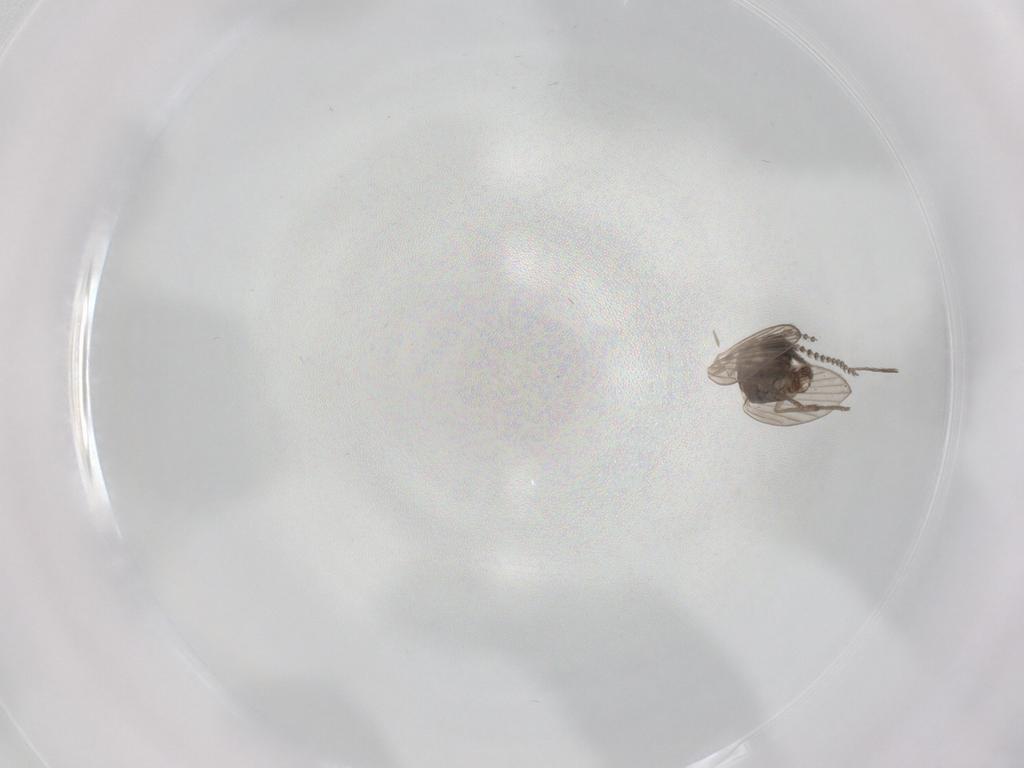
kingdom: Animalia
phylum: Arthropoda
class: Insecta
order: Diptera
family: Psychodidae
